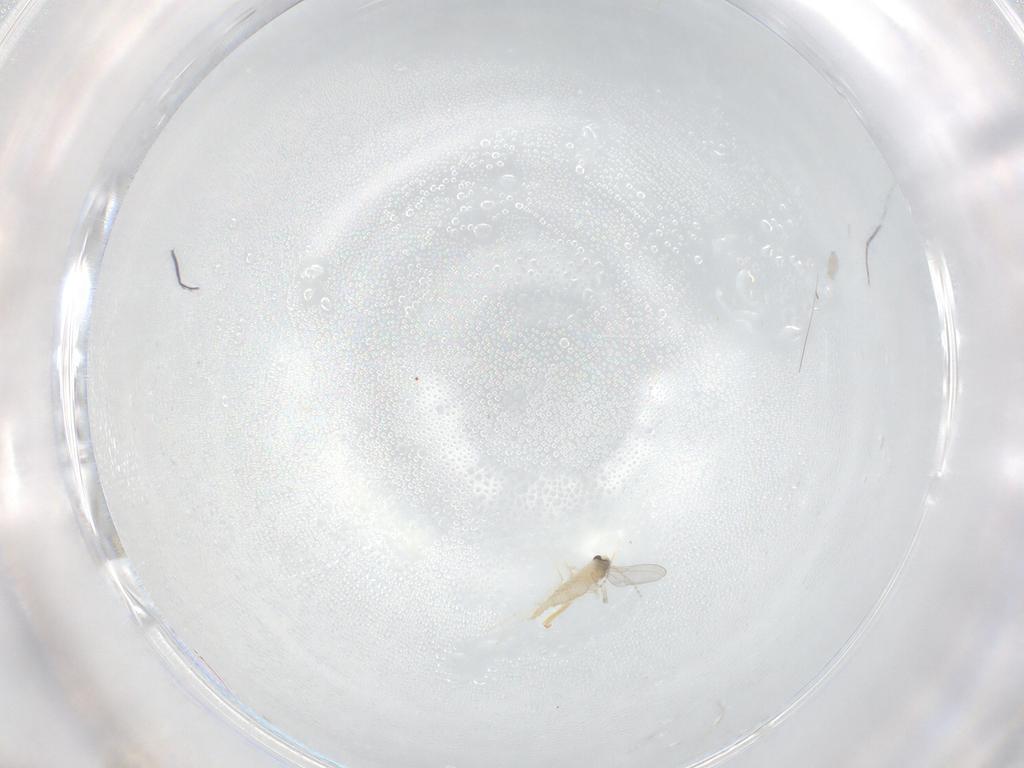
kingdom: Animalia
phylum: Arthropoda
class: Insecta
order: Diptera
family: Cecidomyiidae
